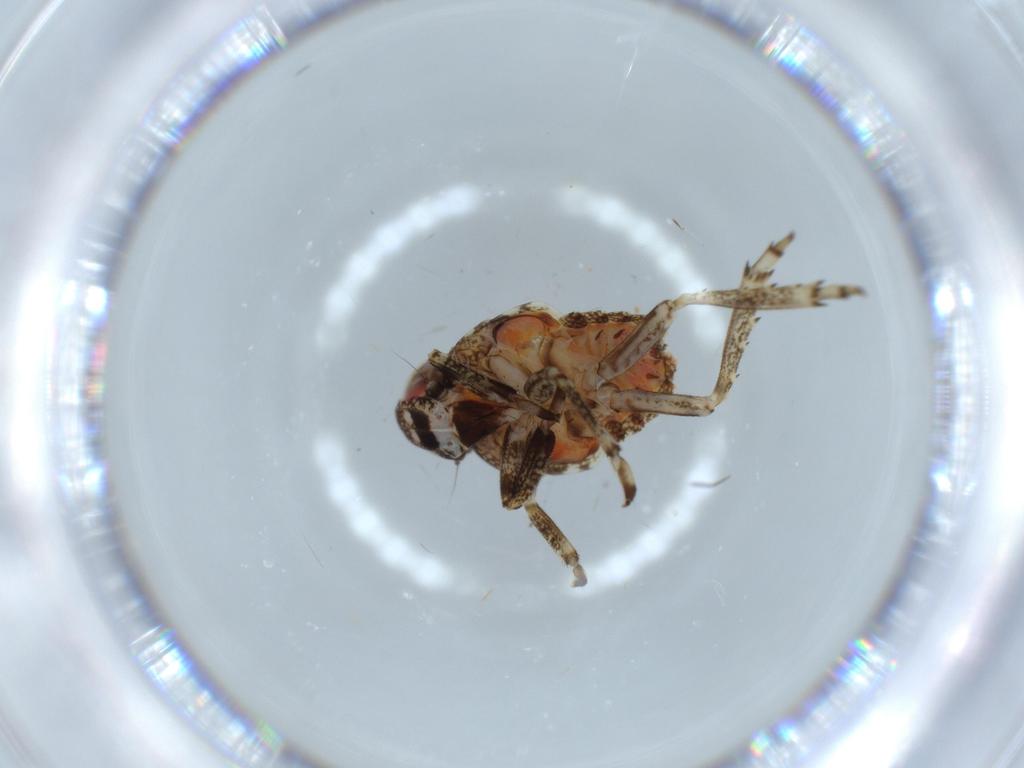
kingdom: Animalia
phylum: Arthropoda
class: Insecta
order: Hemiptera
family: Issidae
